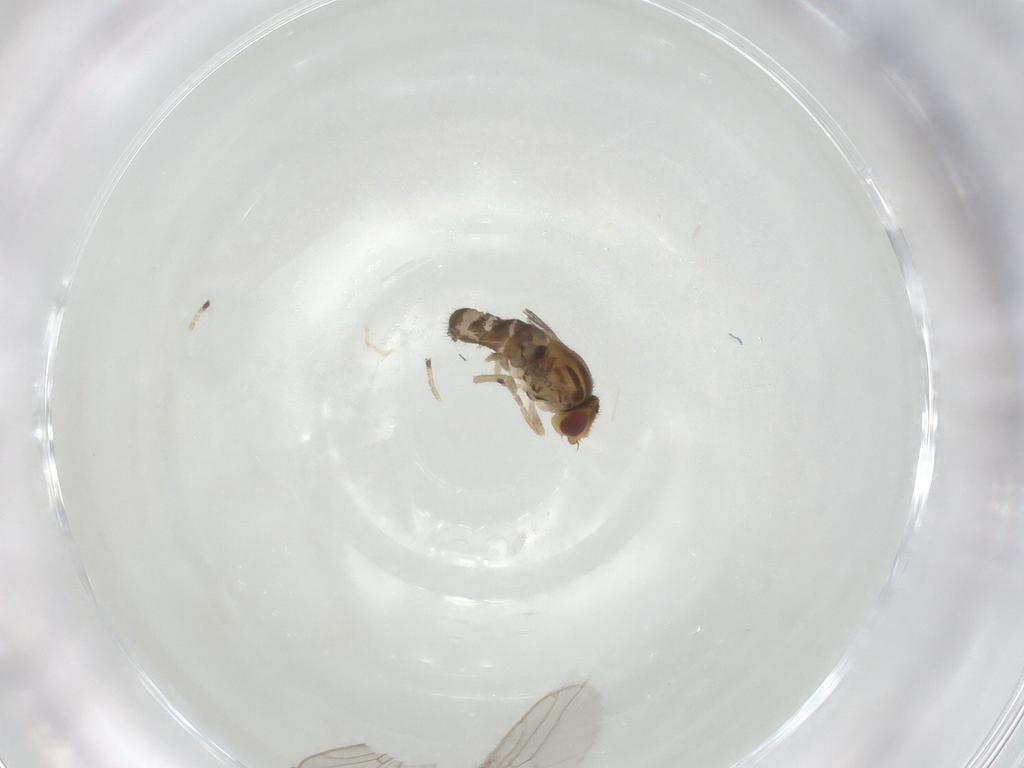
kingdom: Animalia
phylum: Arthropoda
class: Insecta
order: Diptera
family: Chloropidae
